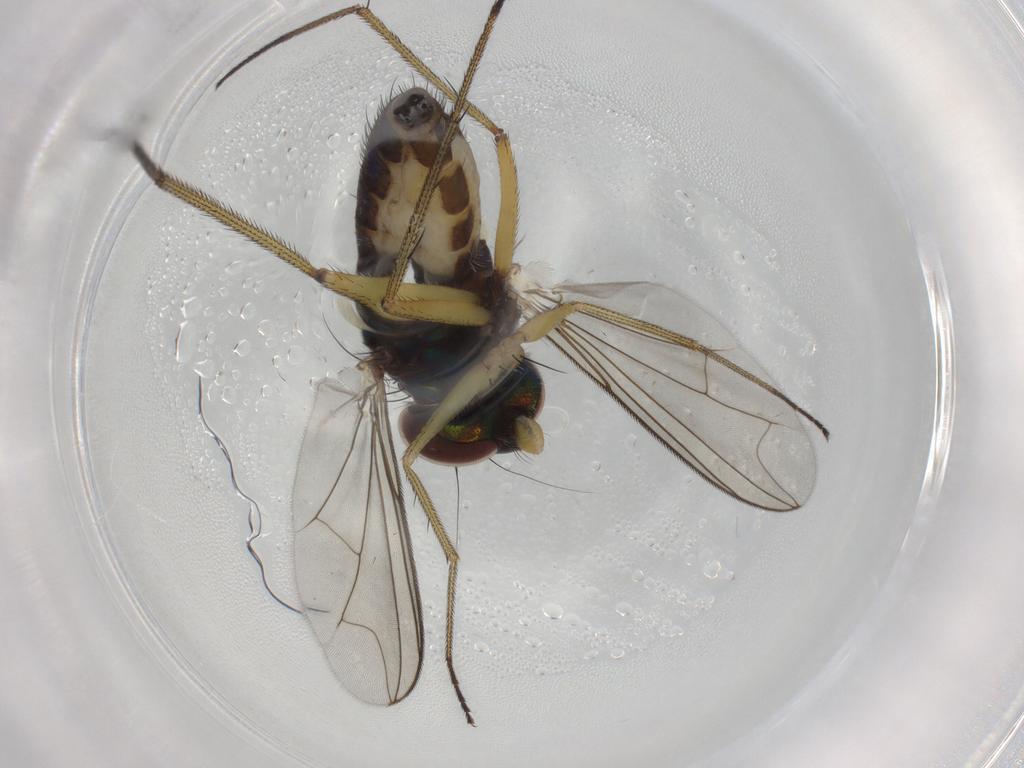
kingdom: Animalia
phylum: Arthropoda
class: Insecta
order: Diptera
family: Dolichopodidae
